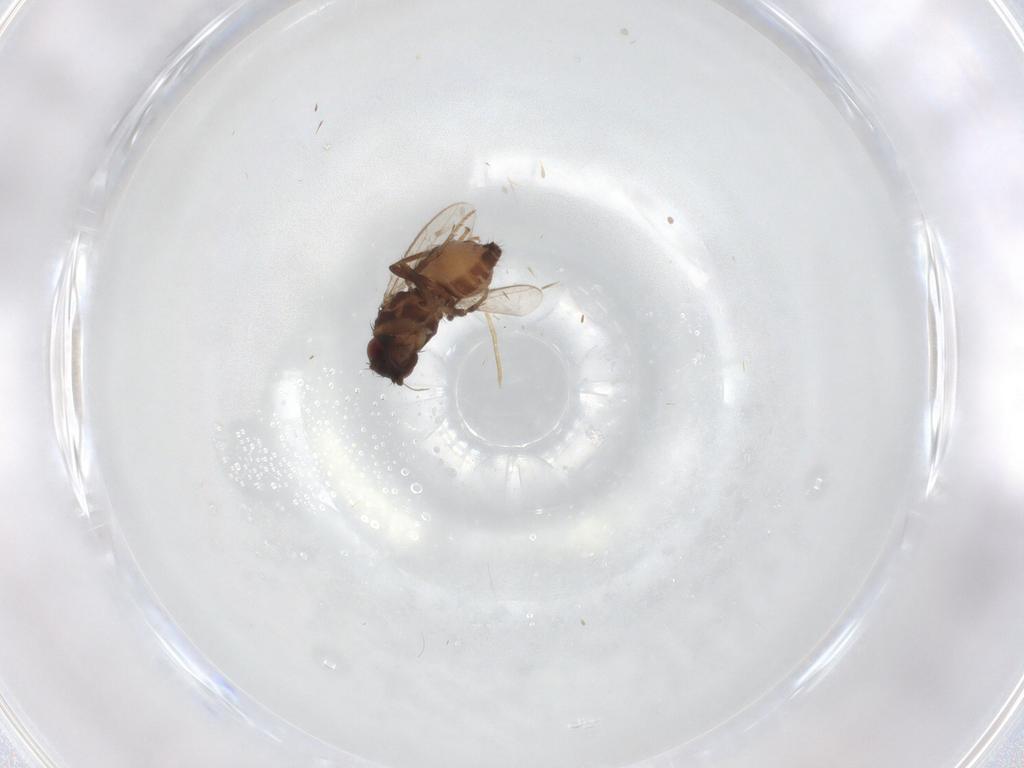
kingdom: Animalia
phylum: Arthropoda
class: Insecta
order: Diptera
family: Sphaeroceridae
